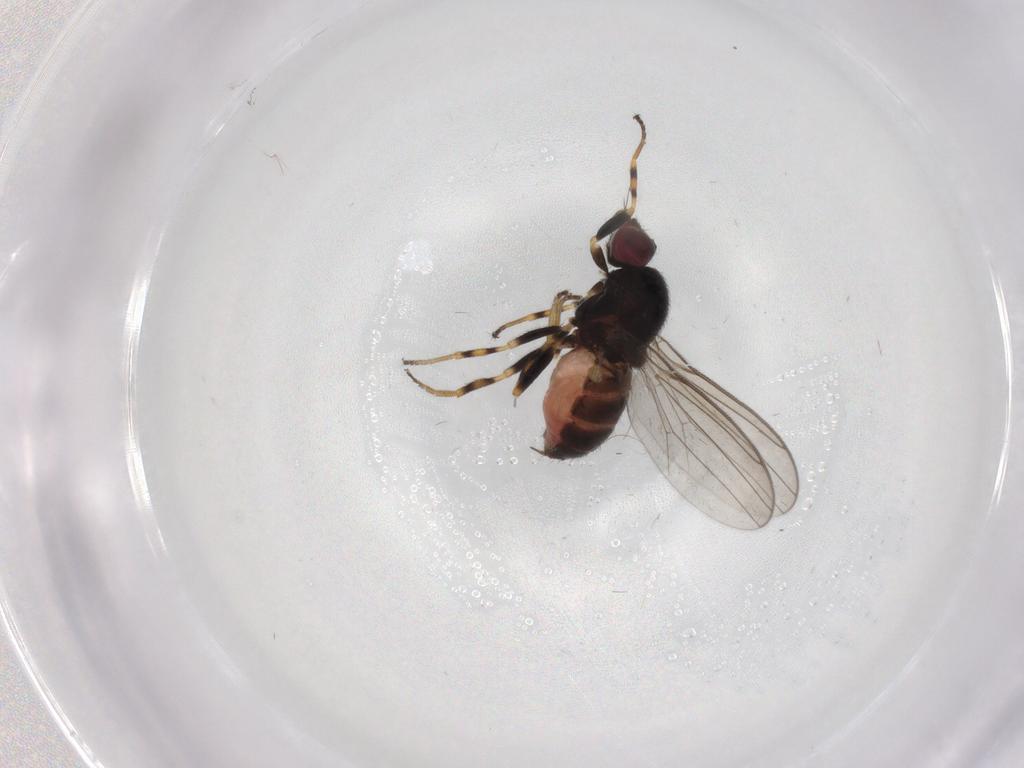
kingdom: Animalia
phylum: Arthropoda
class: Insecta
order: Diptera
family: Chloropidae
